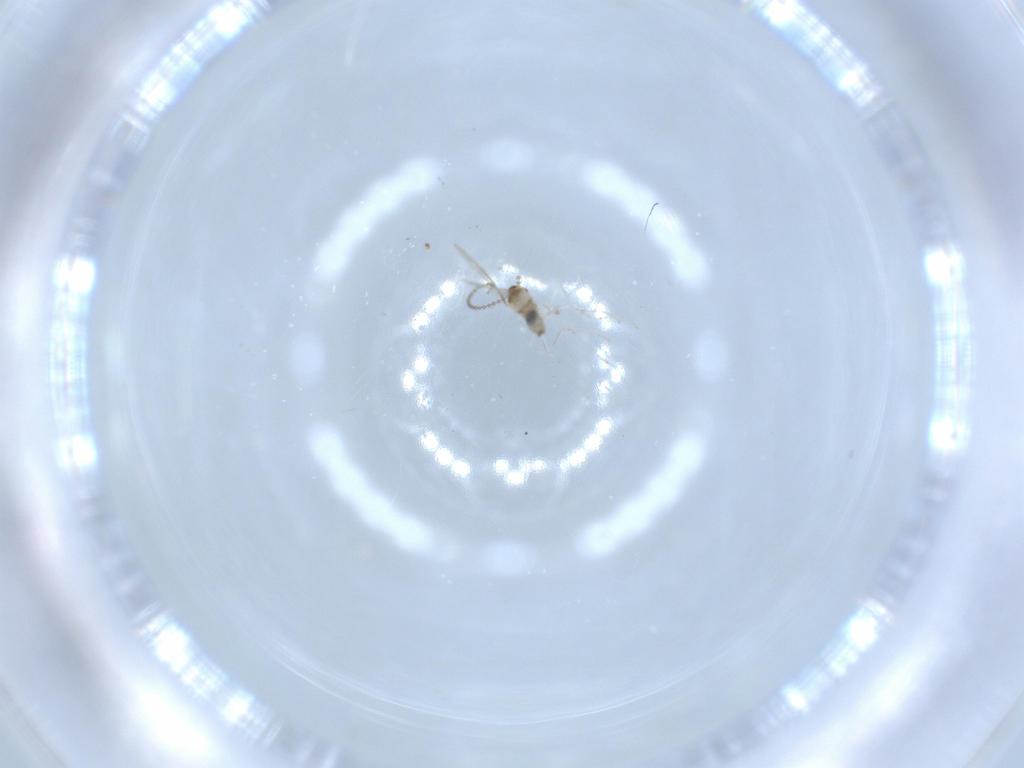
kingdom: Animalia
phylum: Arthropoda
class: Insecta
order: Diptera
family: Cecidomyiidae
